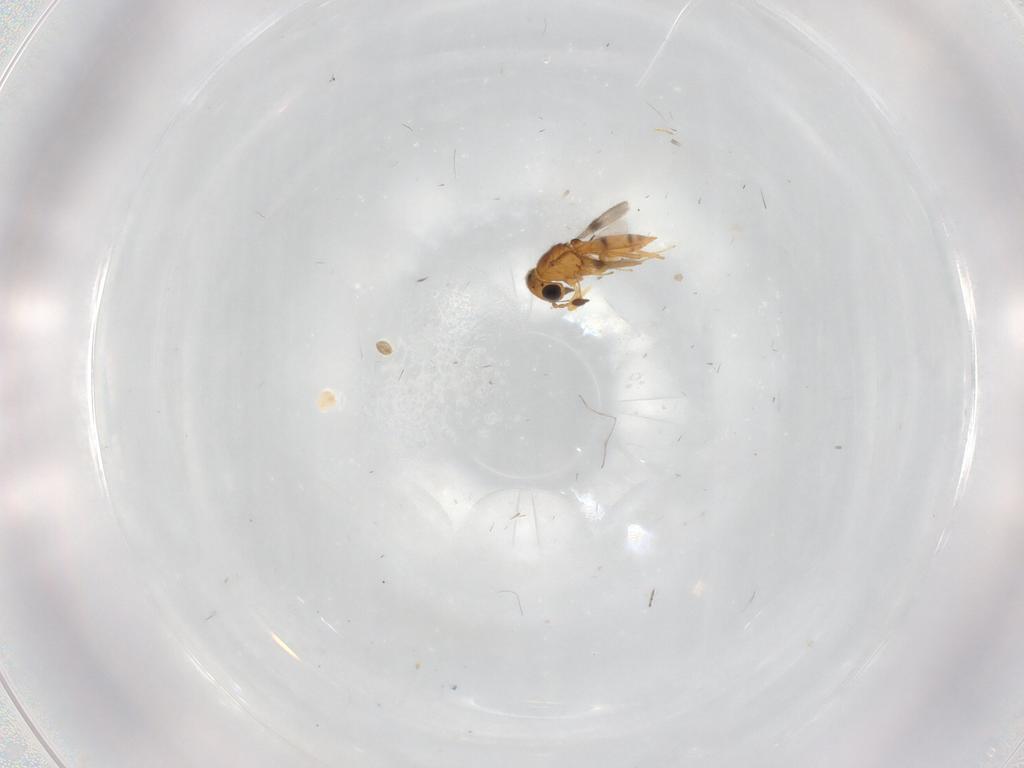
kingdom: Animalia
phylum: Arthropoda
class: Insecta
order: Hymenoptera
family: Scelionidae
